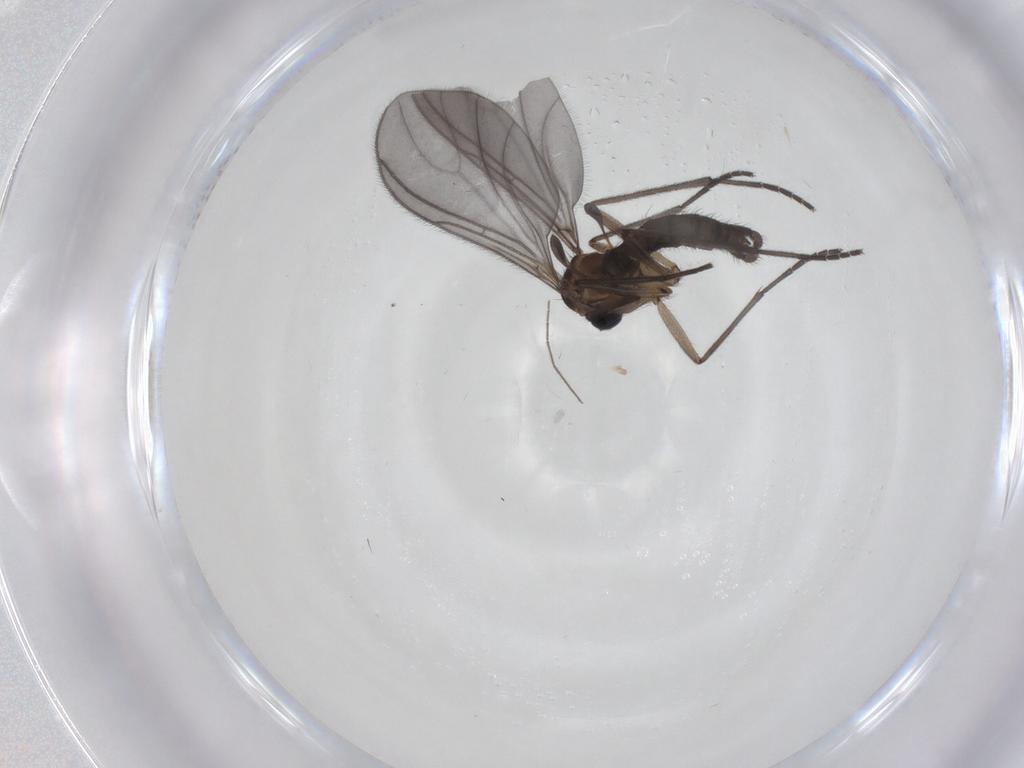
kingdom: Animalia
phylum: Arthropoda
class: Insecta
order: Diptera
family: Sciaridae
